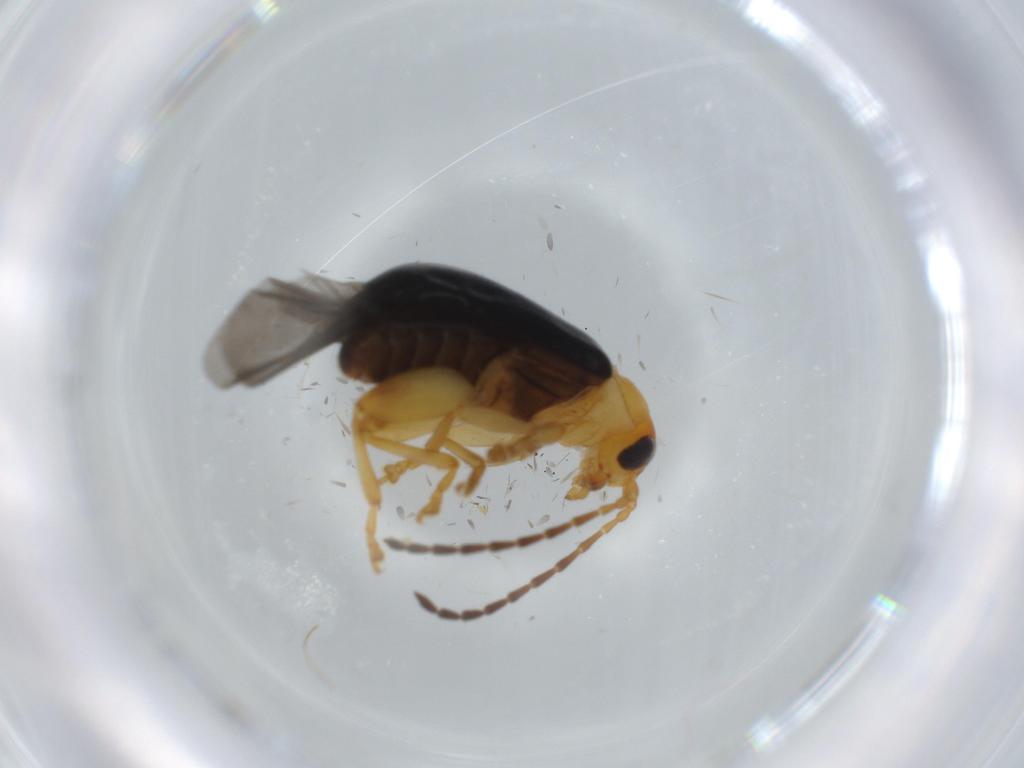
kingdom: Animalia
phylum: Arthropoda
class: Insecta
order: Coleoptera
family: Chrysomelidae
